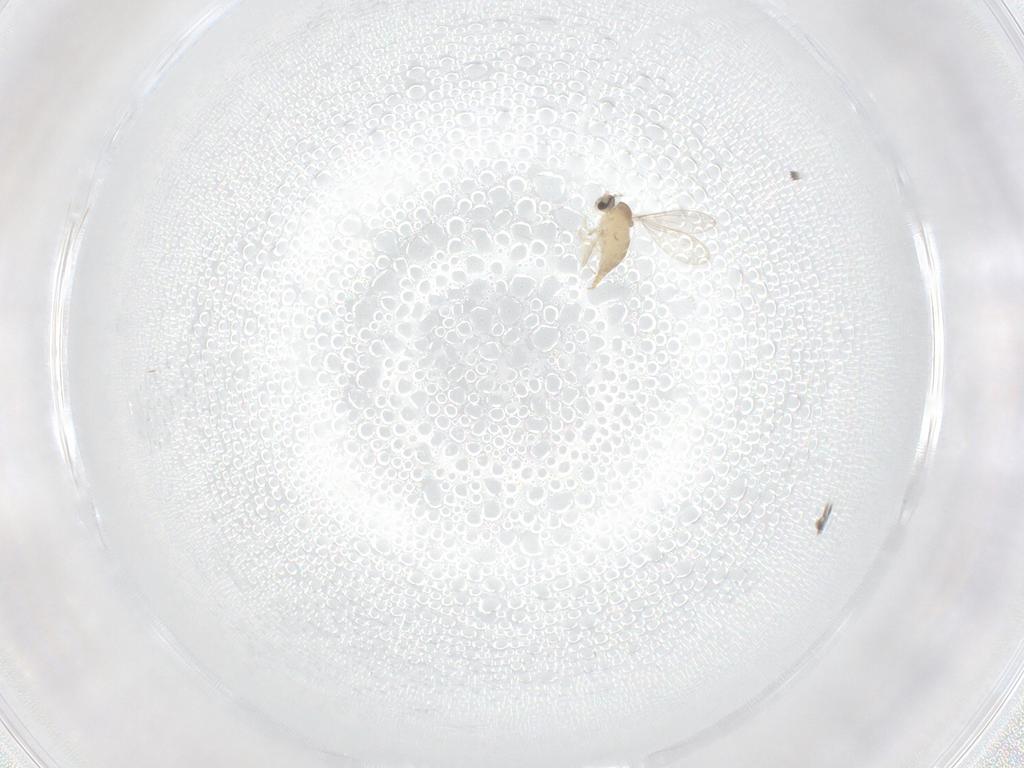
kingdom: Animalia
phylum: Arthropoda
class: Insecta
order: Diptera
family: Cecidomyiidae
